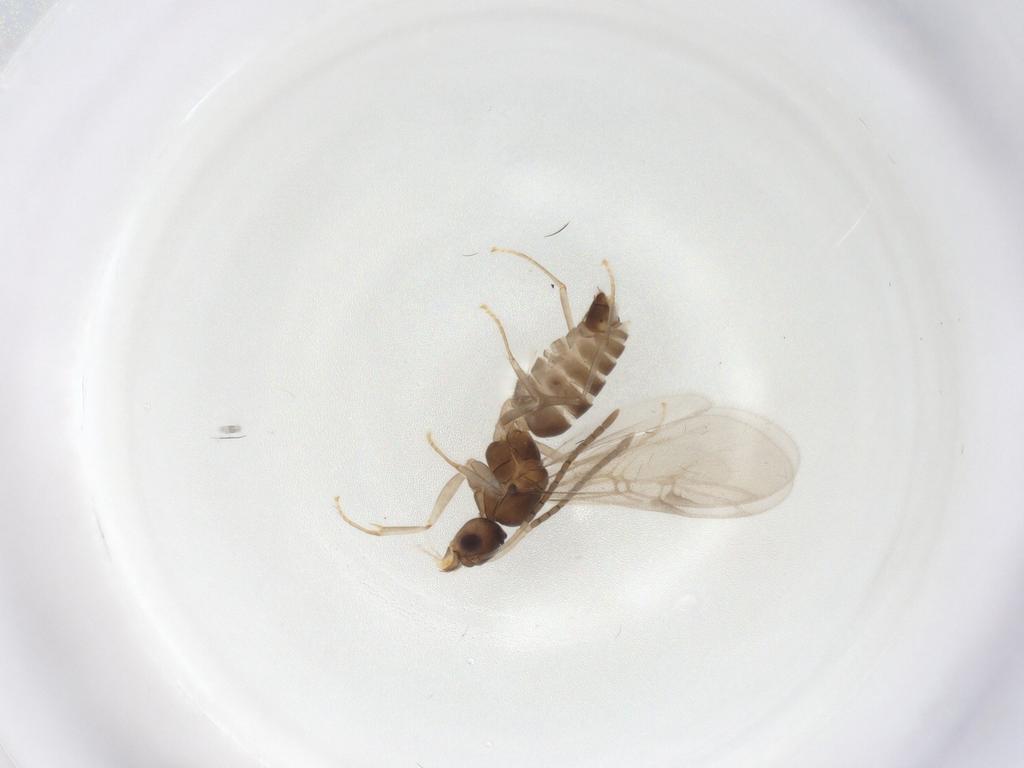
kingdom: Animalia
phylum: Arthropoda
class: Insecta
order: Hymenoptera
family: Formicidae
